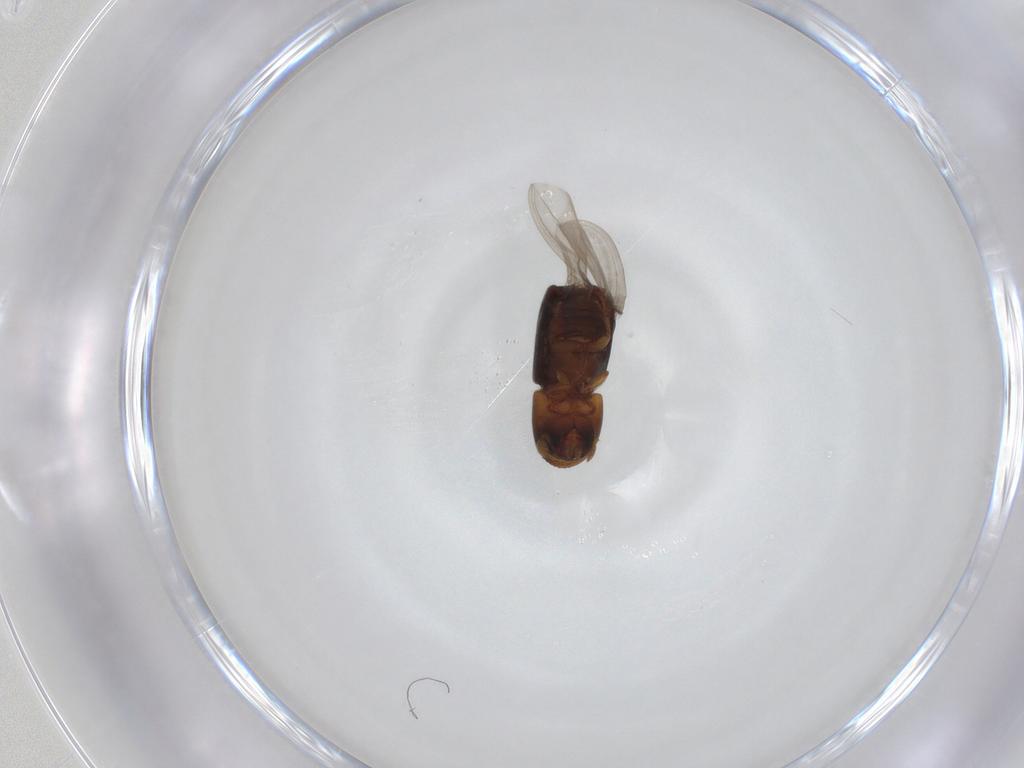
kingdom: Animalia
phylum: Arthropoda
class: Insecta
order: Coleoptera
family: Curculionidae
